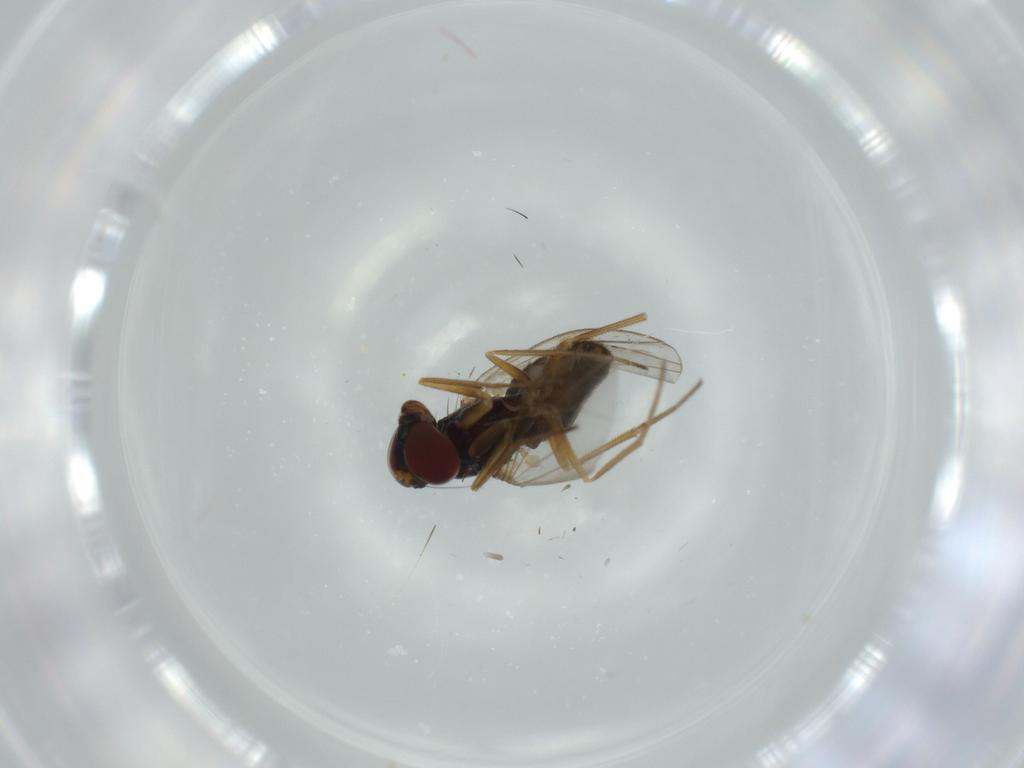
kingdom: Animalia
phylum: Arthropoda
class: Insecta
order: Diptera
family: Dolichopodidae
